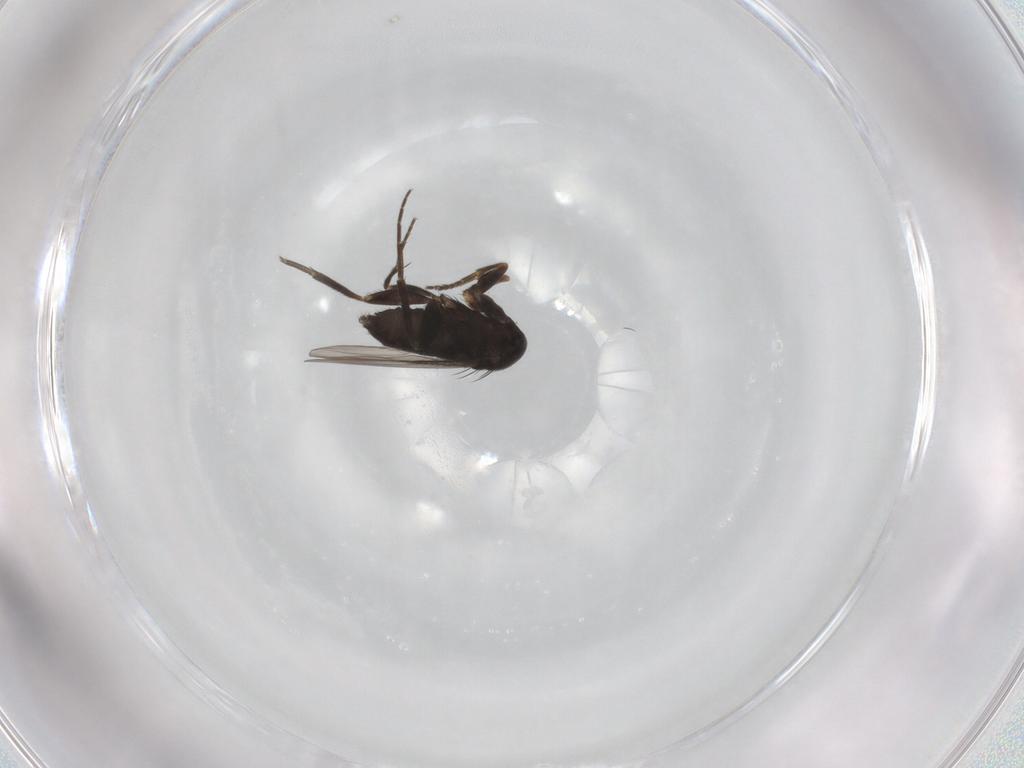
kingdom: Animalia
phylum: Arthropoda
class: Insecta
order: Diptera
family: Phoridae
